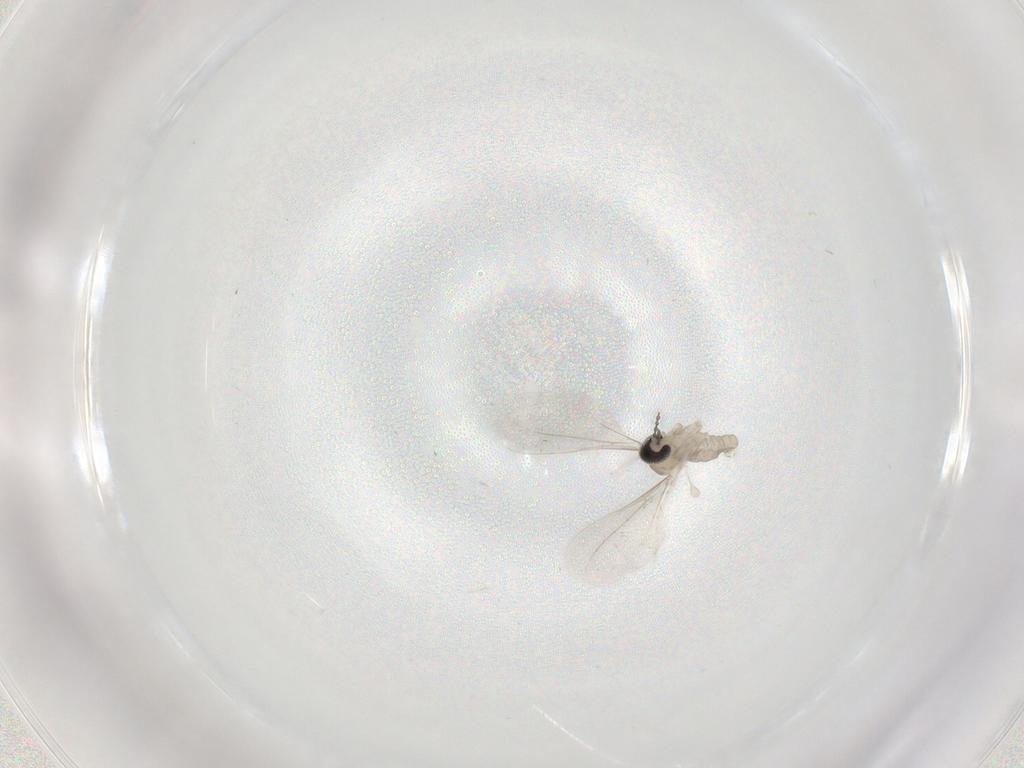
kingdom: Animalia
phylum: Arthropoda
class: Insecta
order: Diptera
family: Cecidomyiidae
